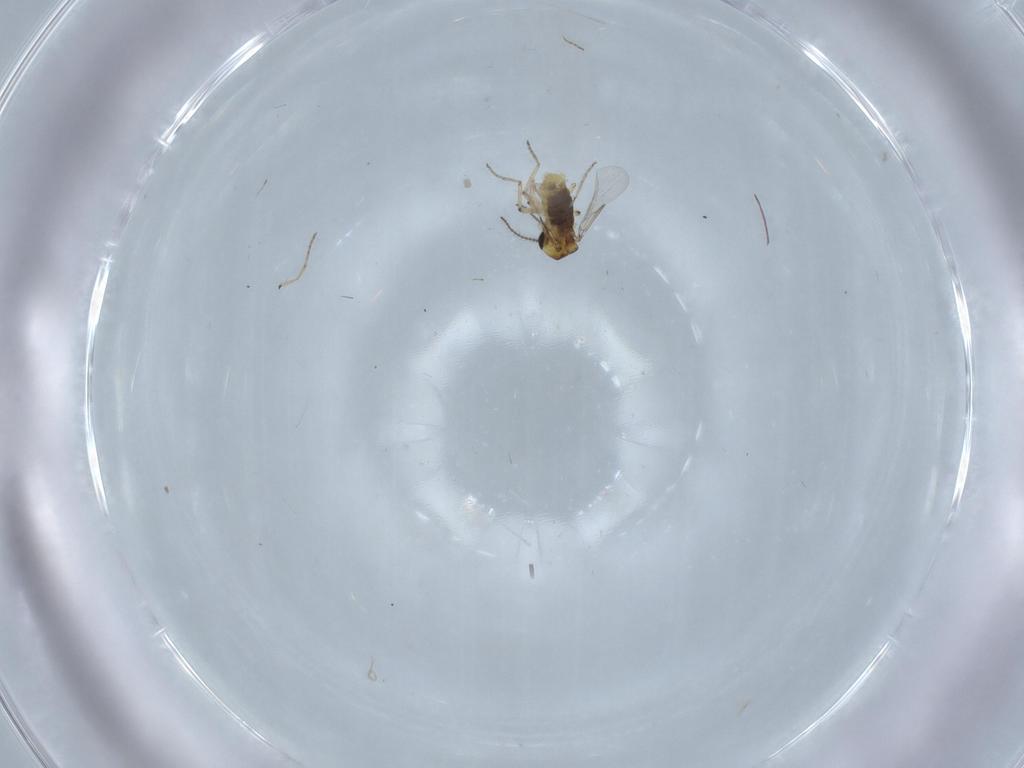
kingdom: Animalia
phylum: Arthropoda
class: Insecta
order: Diptera
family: Ceratopogonidae
